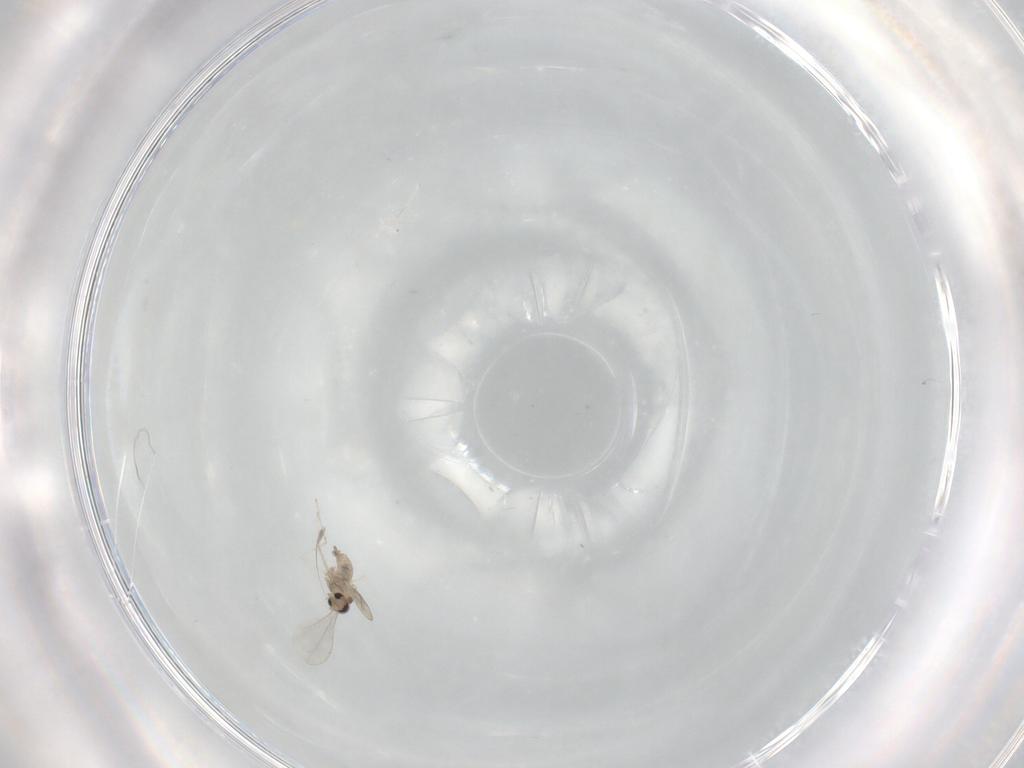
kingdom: Animalia
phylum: Arthropoda
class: Insecta
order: Diptera
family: Cecidomyiidae
